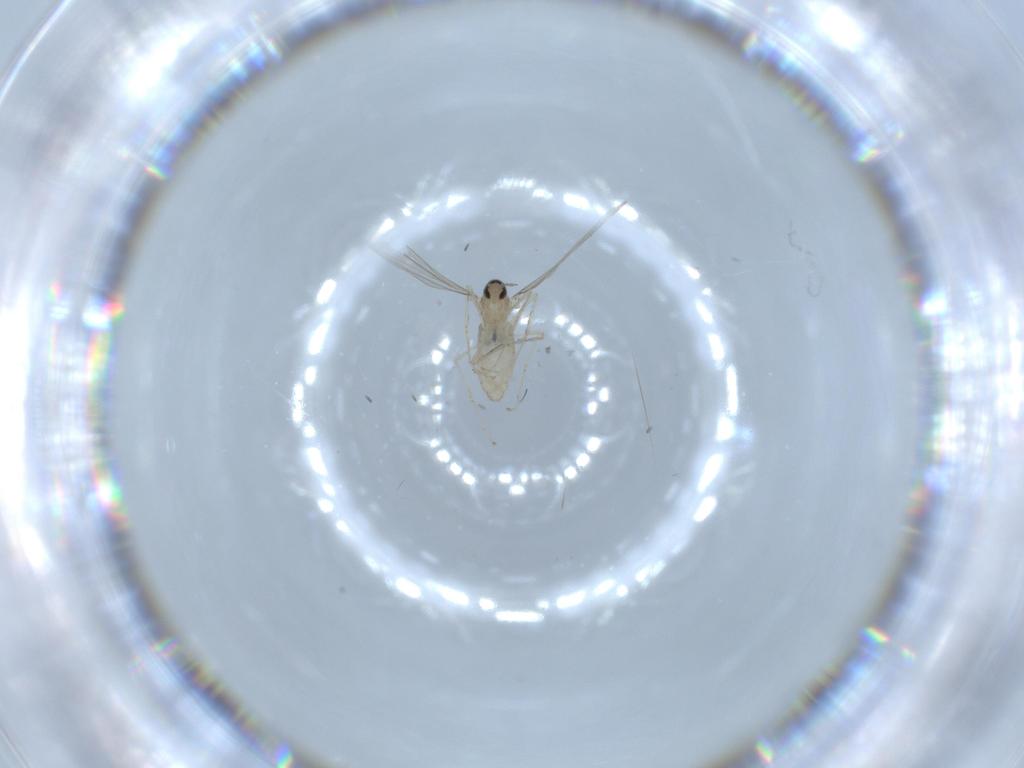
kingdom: Animalia
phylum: Arthropoda
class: Insecta
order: Diptera
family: Cecidomyiidae
